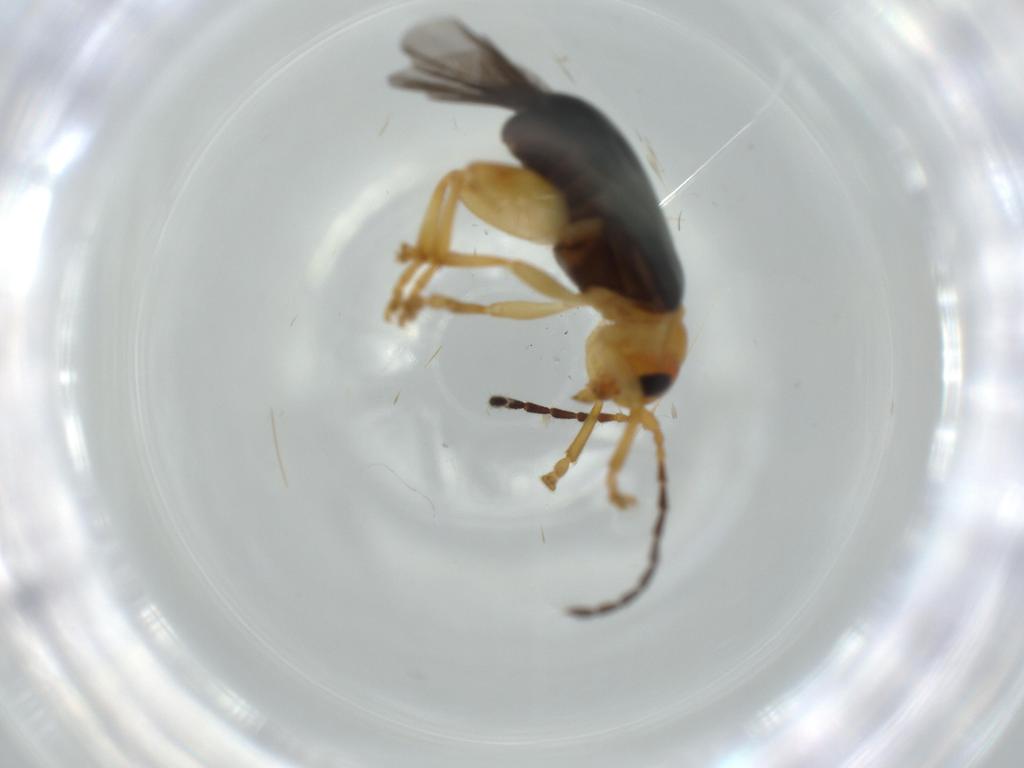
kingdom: Animalia
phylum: Arthropoda
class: Insecta
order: Coleoptera
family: Chrysomelidae
